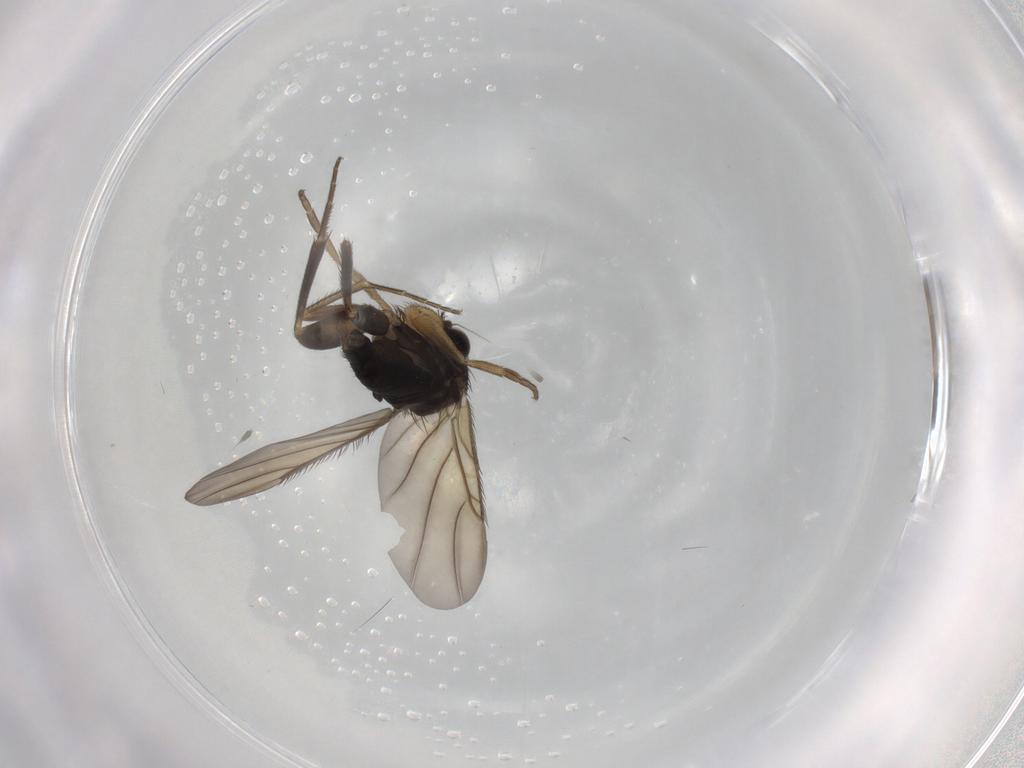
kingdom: Animalia
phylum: Arthropoda
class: Insecta
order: Diptera
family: Phoridae
